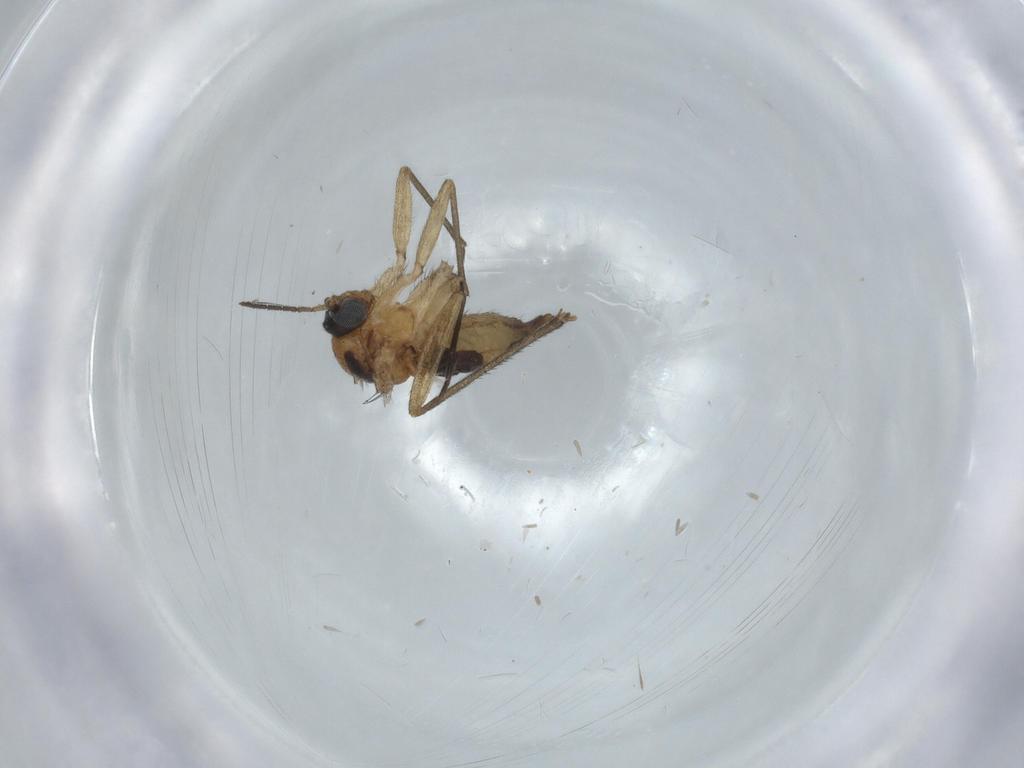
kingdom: Animalia
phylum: Arthropoda
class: Insecta
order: Diptera
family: Sciaridae
